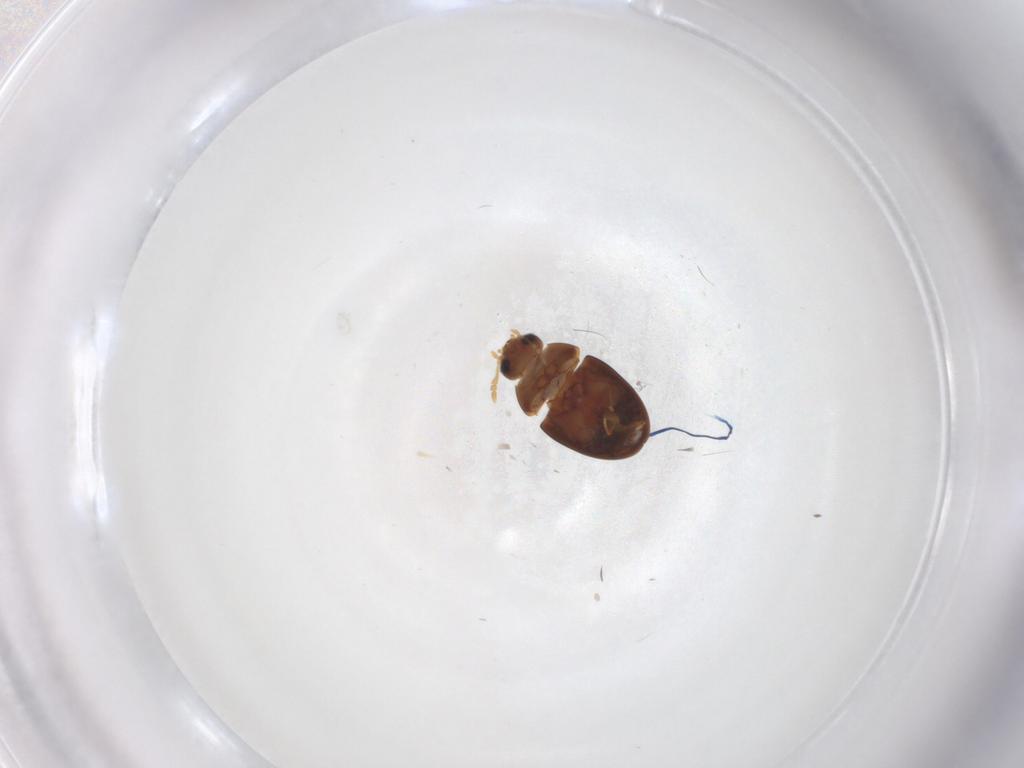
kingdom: Animalia
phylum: Arthropoda
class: Insecta
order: Coleoptera
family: Phalacridae
